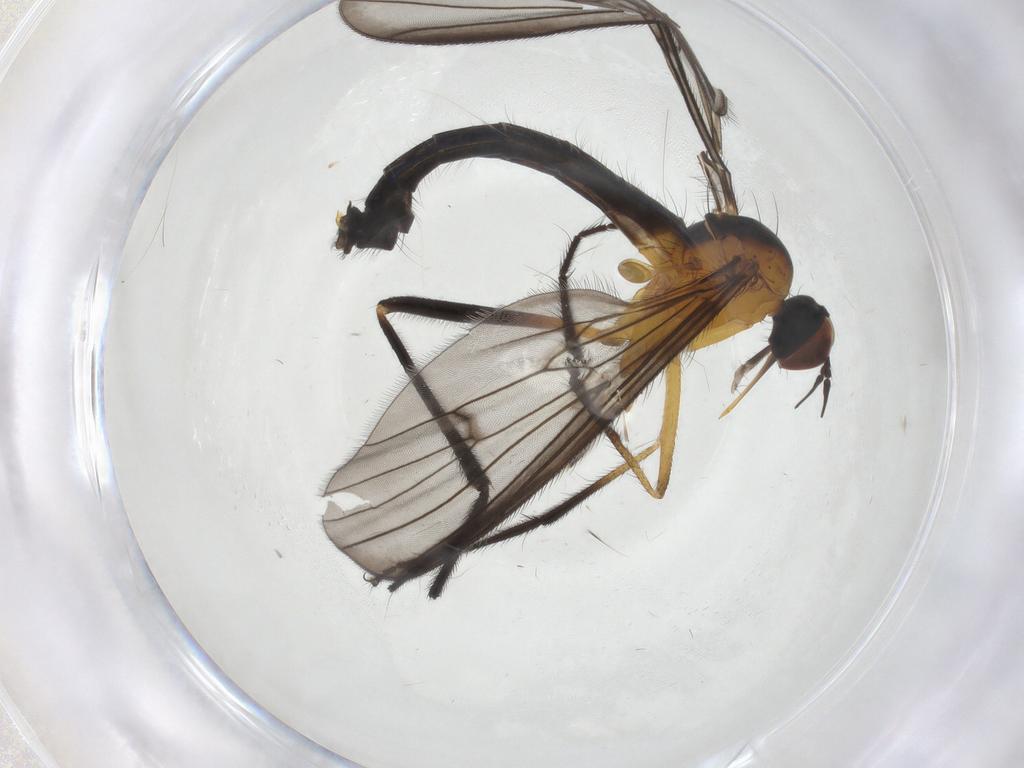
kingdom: Animalia
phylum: Arthropoda
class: Insecta
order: Diptera
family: Empididae
